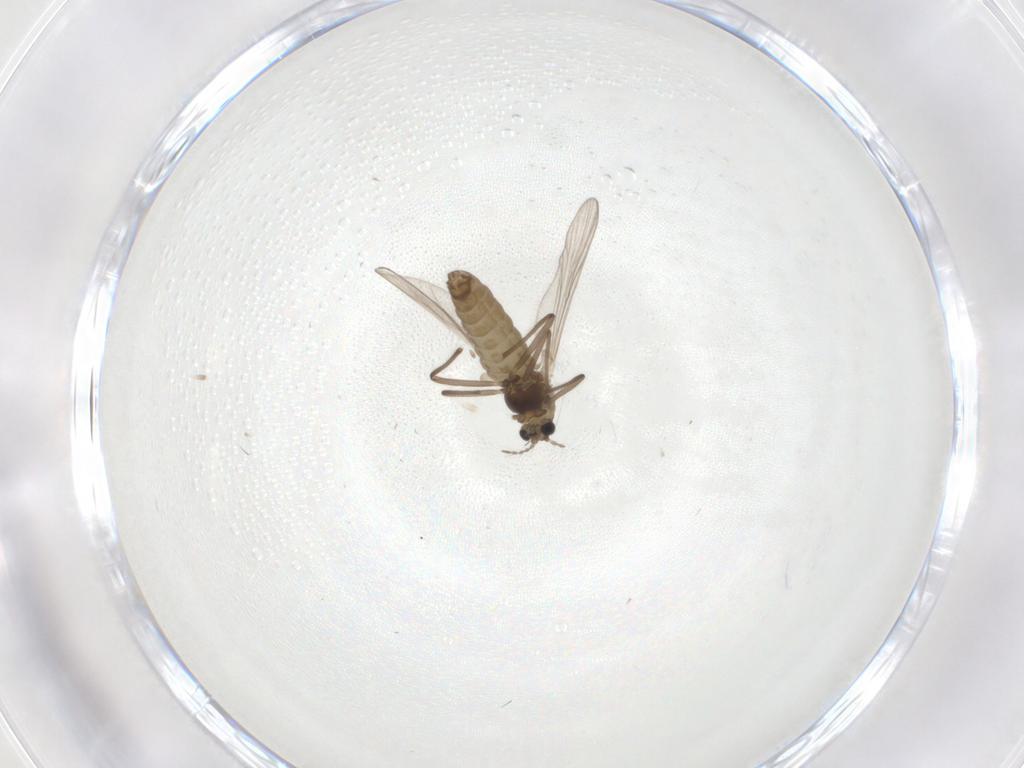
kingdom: Animalia
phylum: Arthropoda
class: Insecta
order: Diptera
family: Chironomidae
